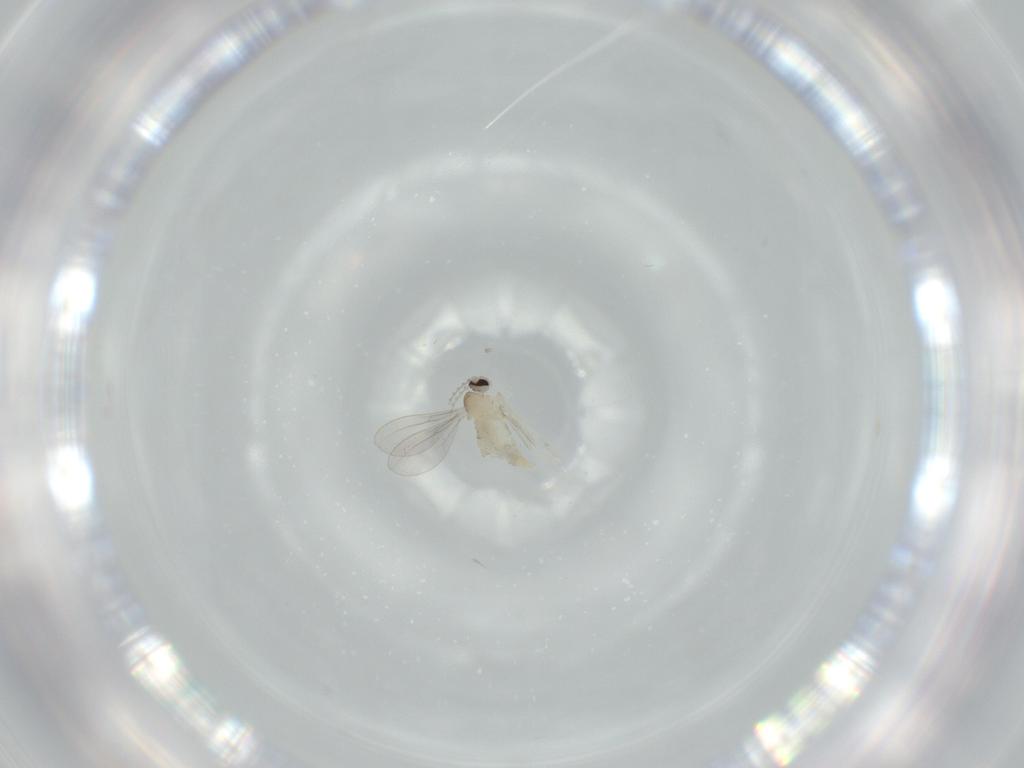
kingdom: Animalia
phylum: Arthropoda
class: Insecta
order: Diptera
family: Cecidomyiidae
